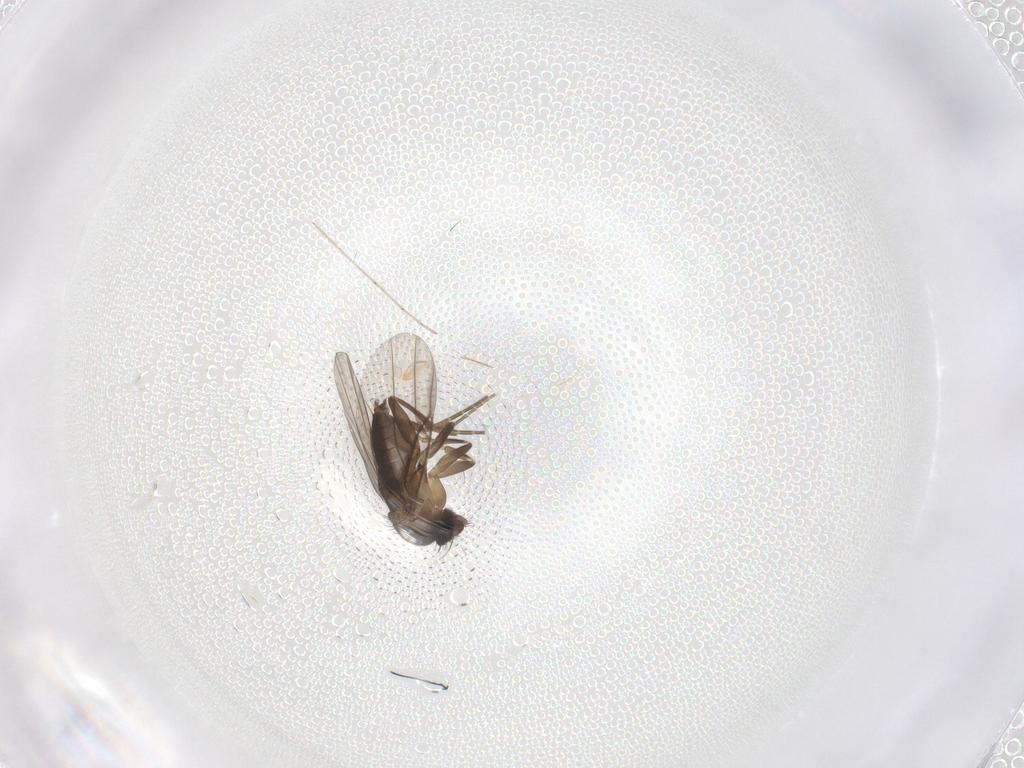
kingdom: Animalia
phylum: Arthropoda
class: Insecta
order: Diptera
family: Phoridae
